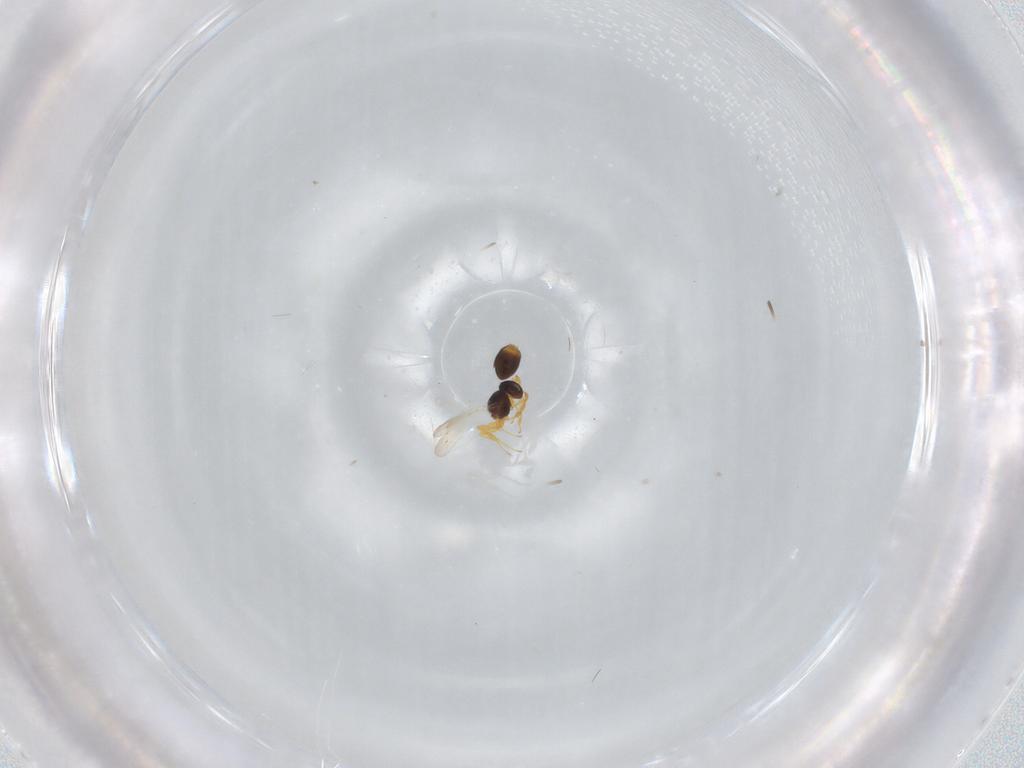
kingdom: Animalia
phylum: Arthropoda
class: Insecta
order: Hymenoptera
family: Platygastridae
